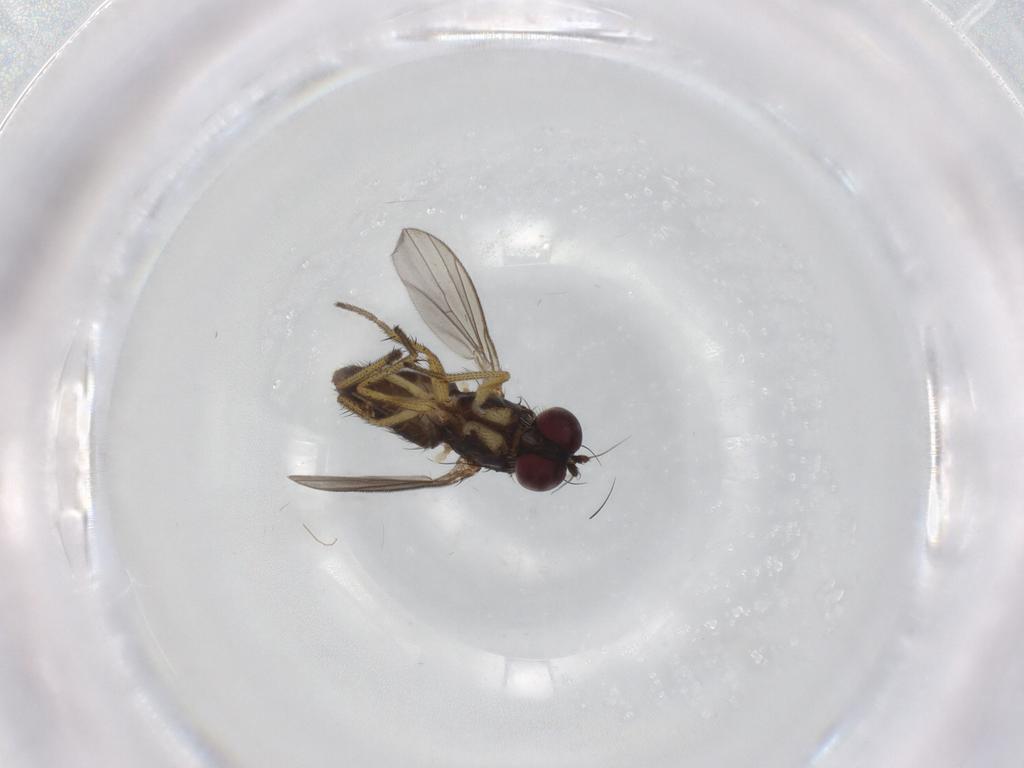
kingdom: Animalia
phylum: Arthropoda
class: Insecta
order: Diptera
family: Dolichopodidae
